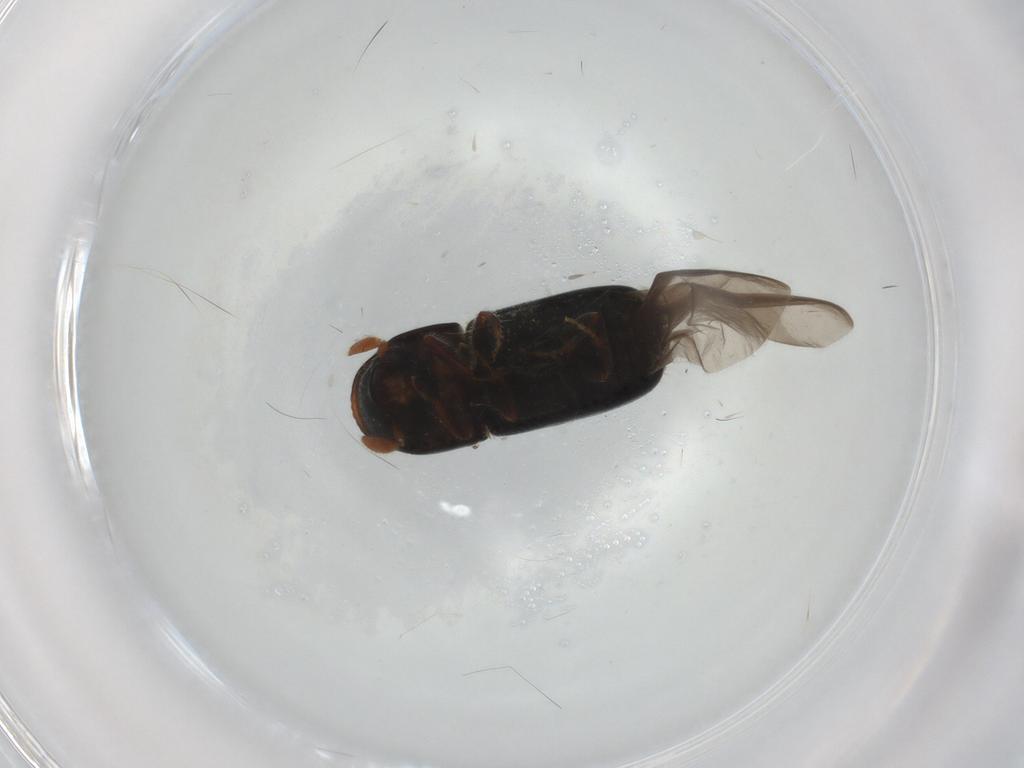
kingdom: Animalia
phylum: Arthropoda
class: Insecta
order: Coleoptera
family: Curculionidae
